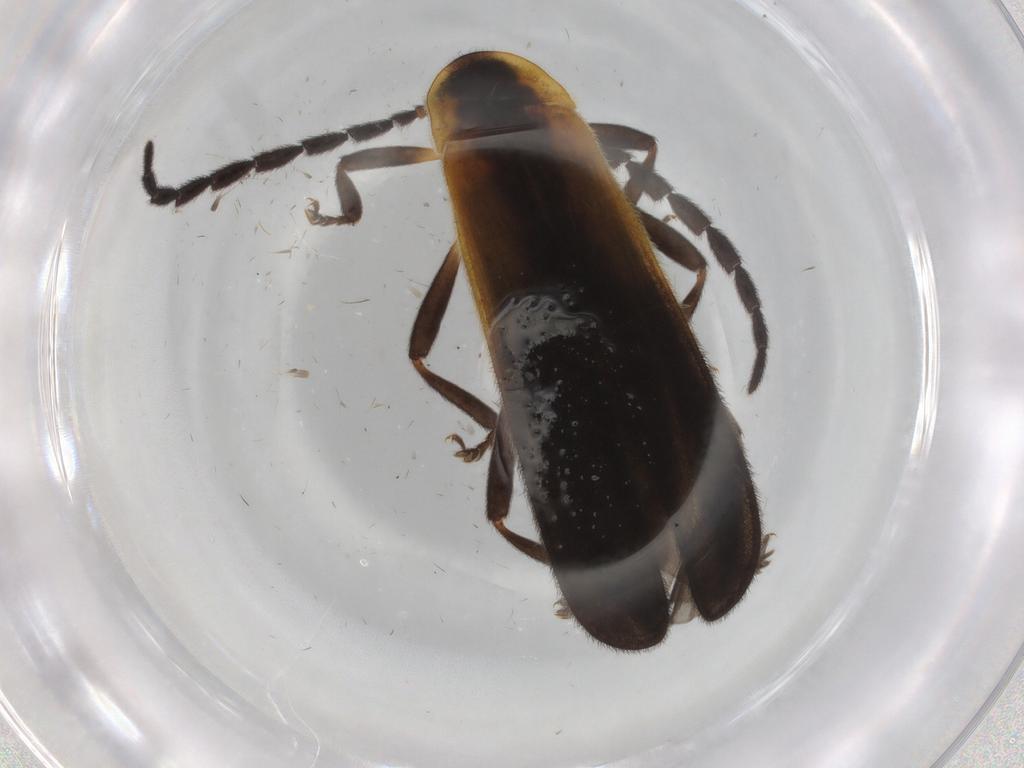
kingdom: Animalia
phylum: Arthropoda
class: Insecta
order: Coleoptera
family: Lycidae
